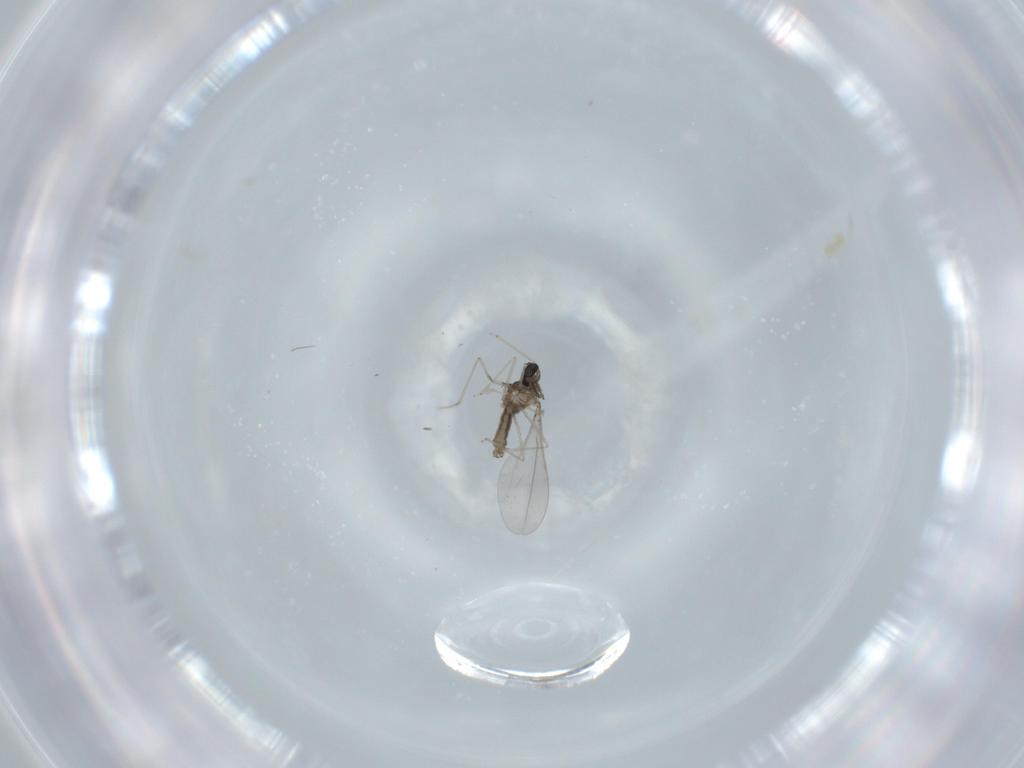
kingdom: Animalia
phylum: Arthropoda
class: Insecta
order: Diptera
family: Cecidomyiidae
